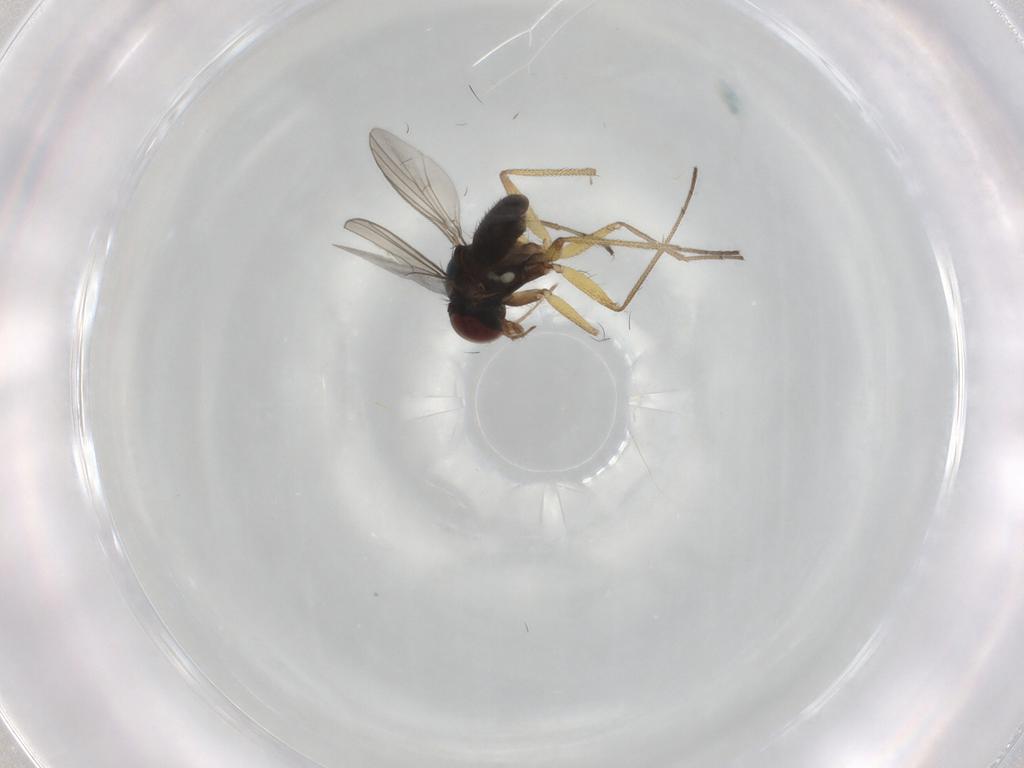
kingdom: Animalia
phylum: Arthropoda
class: Insecta
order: Diptera
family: Dolichopodidae
